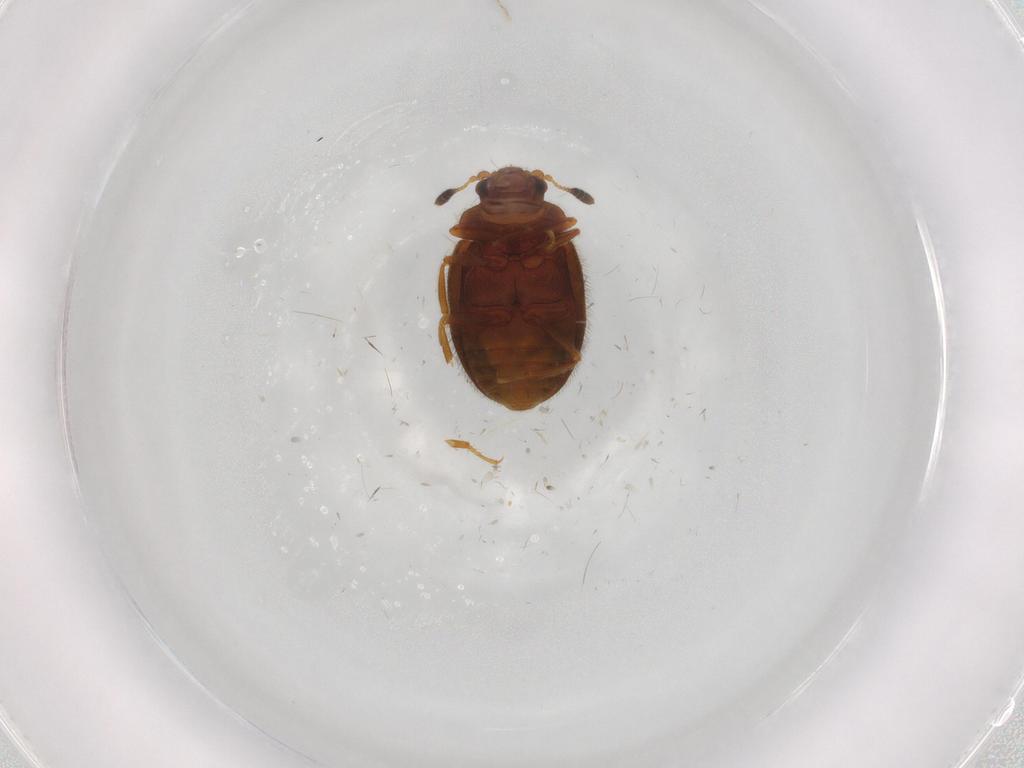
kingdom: Animalia
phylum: Arthropoda
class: Insecta
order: Coleoptera
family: Sphindidae
